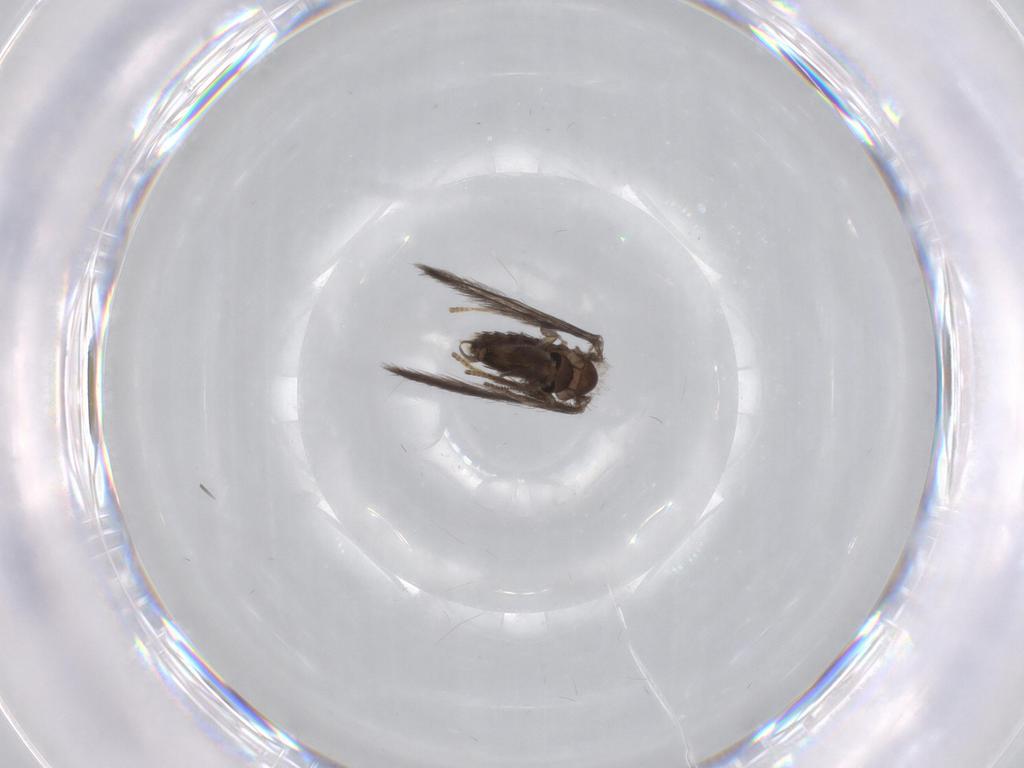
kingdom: Animalia
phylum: Arthropoda
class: Insecta
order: Diptera
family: Psychodidae
